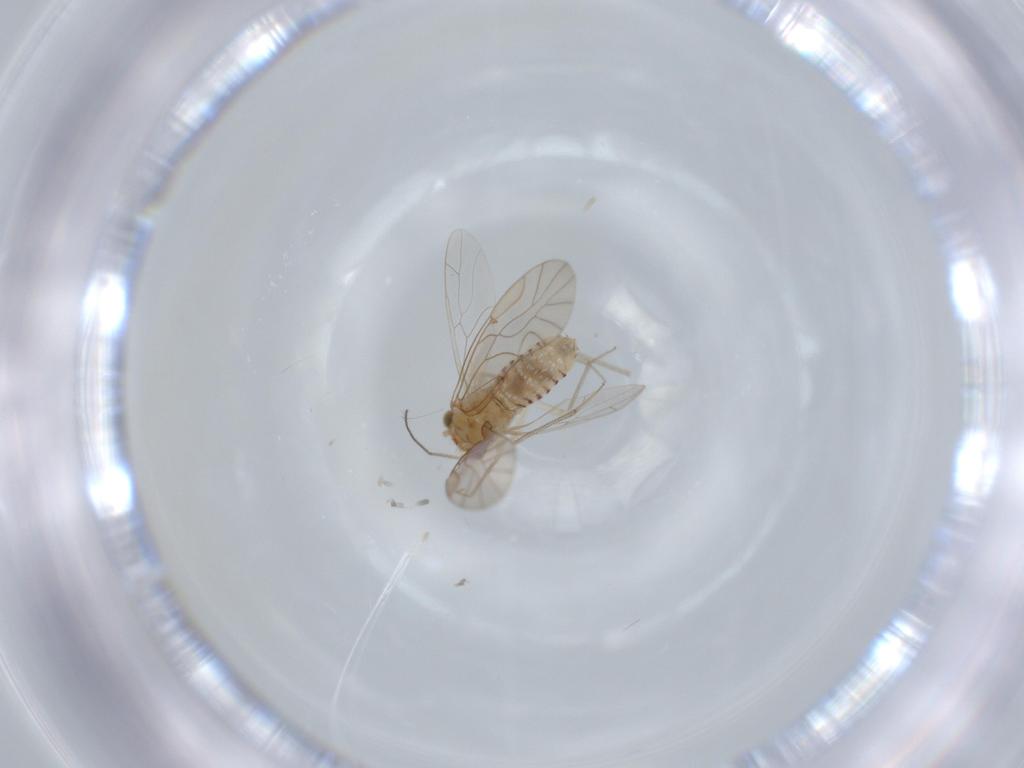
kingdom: Animalia
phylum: Arthropoda
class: Insecta
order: Psocodea
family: Lachesillidae
